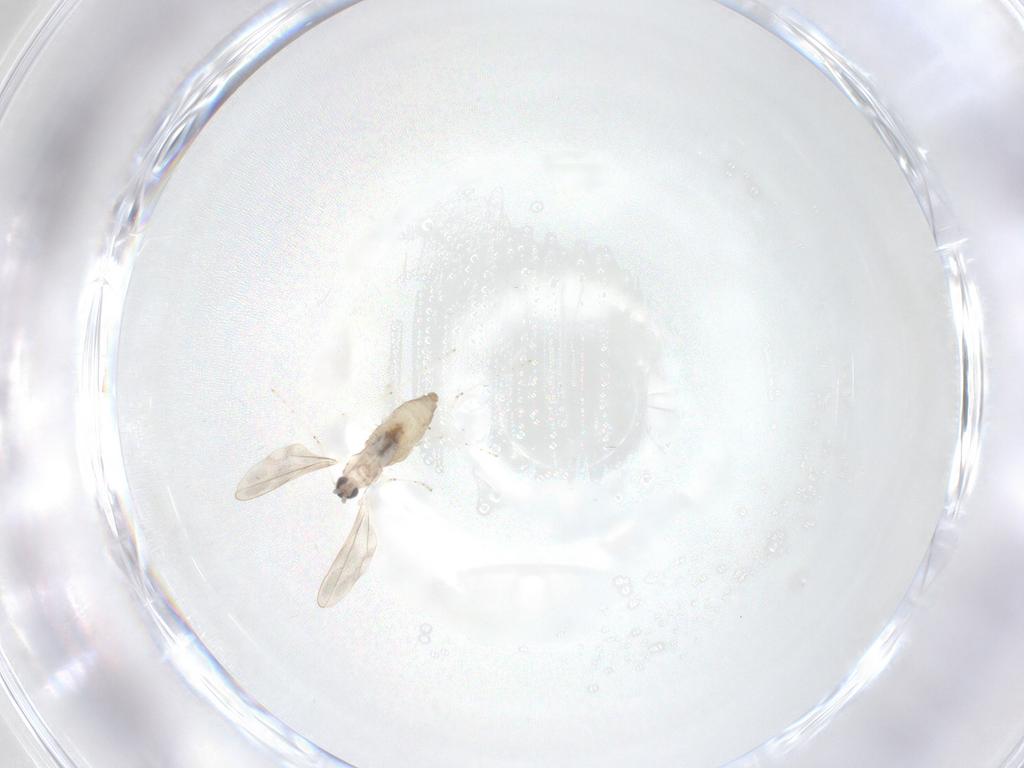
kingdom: Animalia
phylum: Arthropoda
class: Insecta
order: Diptera
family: Cecidomyiidae
